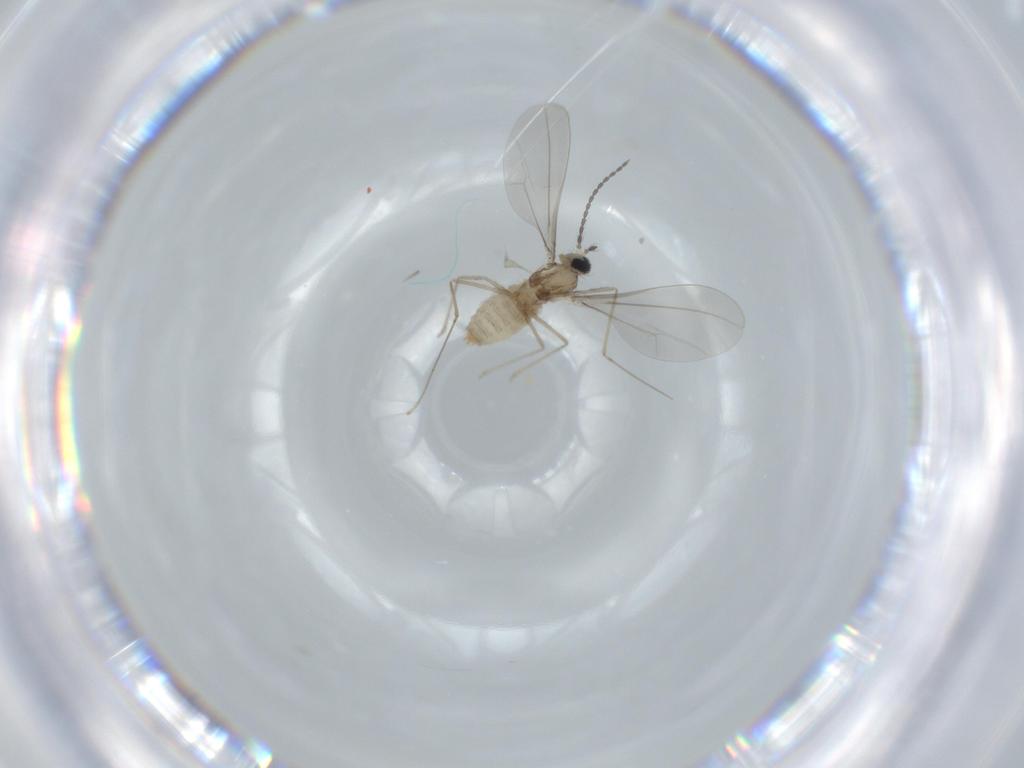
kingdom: Animalia
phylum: Arthropoda
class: Insecta
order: Diptera
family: Cecidomyiidae
